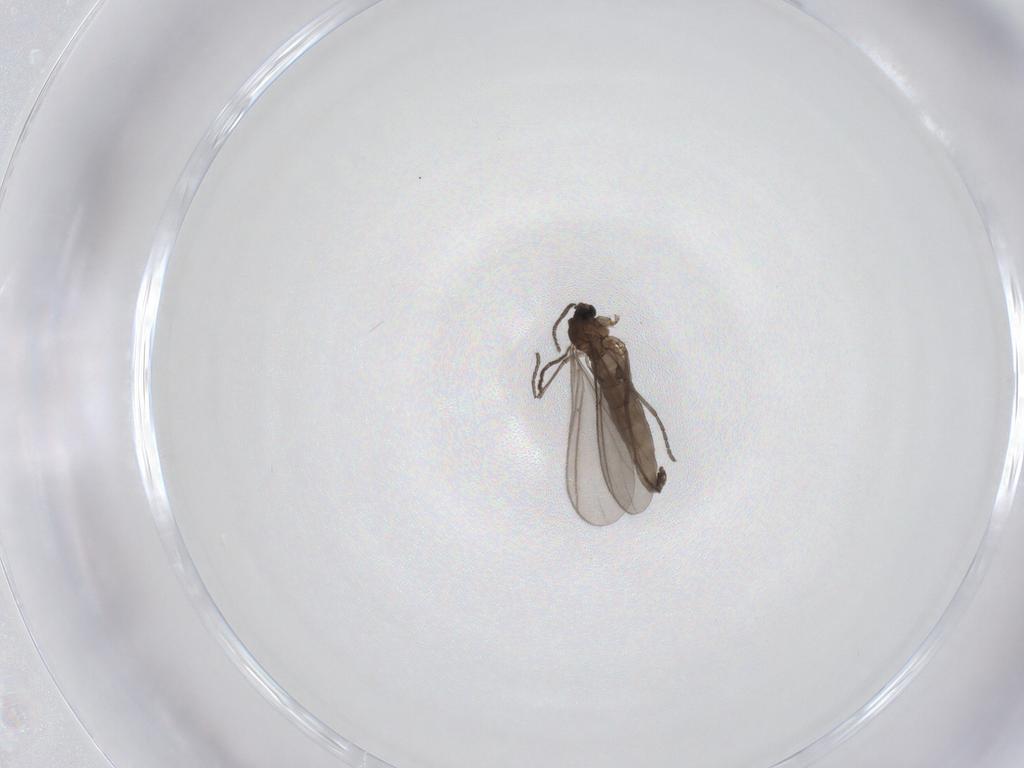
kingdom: Animalia
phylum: Arthropoda
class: Insecta
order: Diptera
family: Sciaridae
